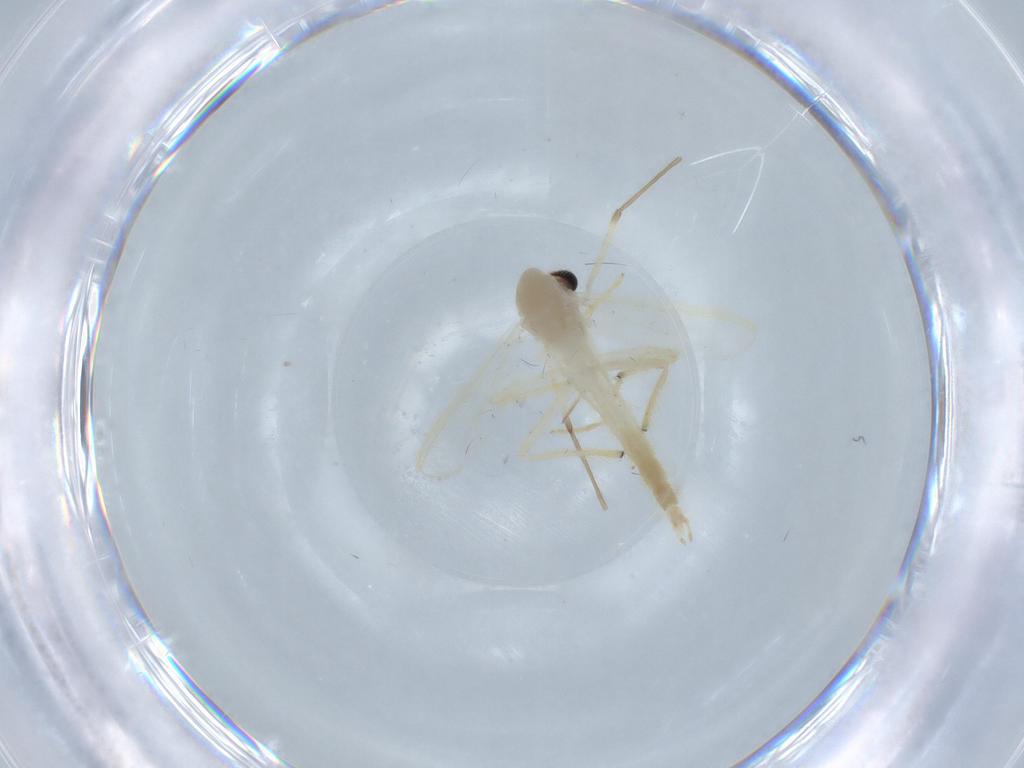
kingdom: Animalia
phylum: Arthropoda
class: Insecta
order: Diptera
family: Chironomidae
